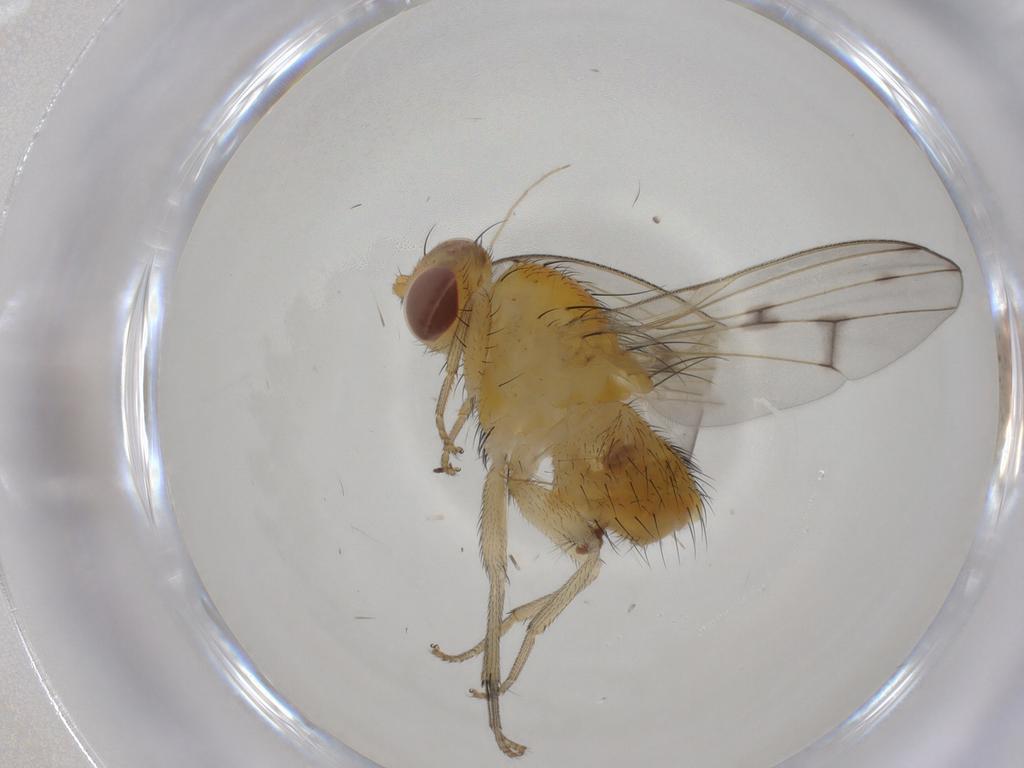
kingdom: Animalia
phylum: Arthropoda
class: Insecta
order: Diptera
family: Lauxaniidae
